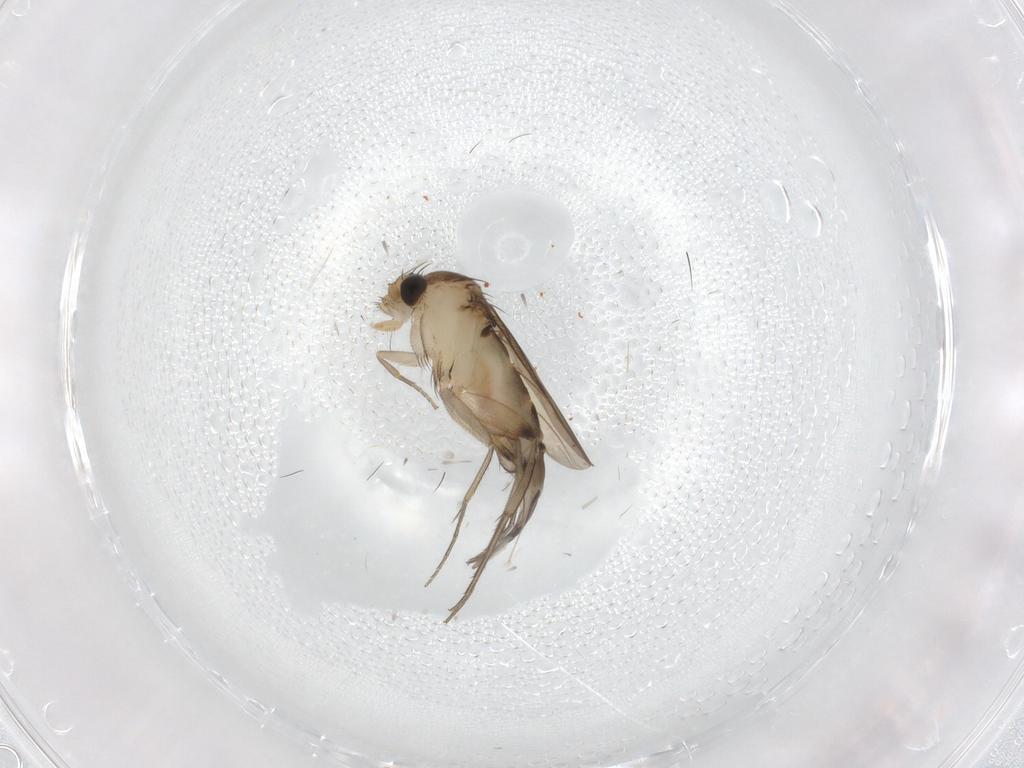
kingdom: Animalia
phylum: Arthropoda
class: Insecta
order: Diptera
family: Phoridae
